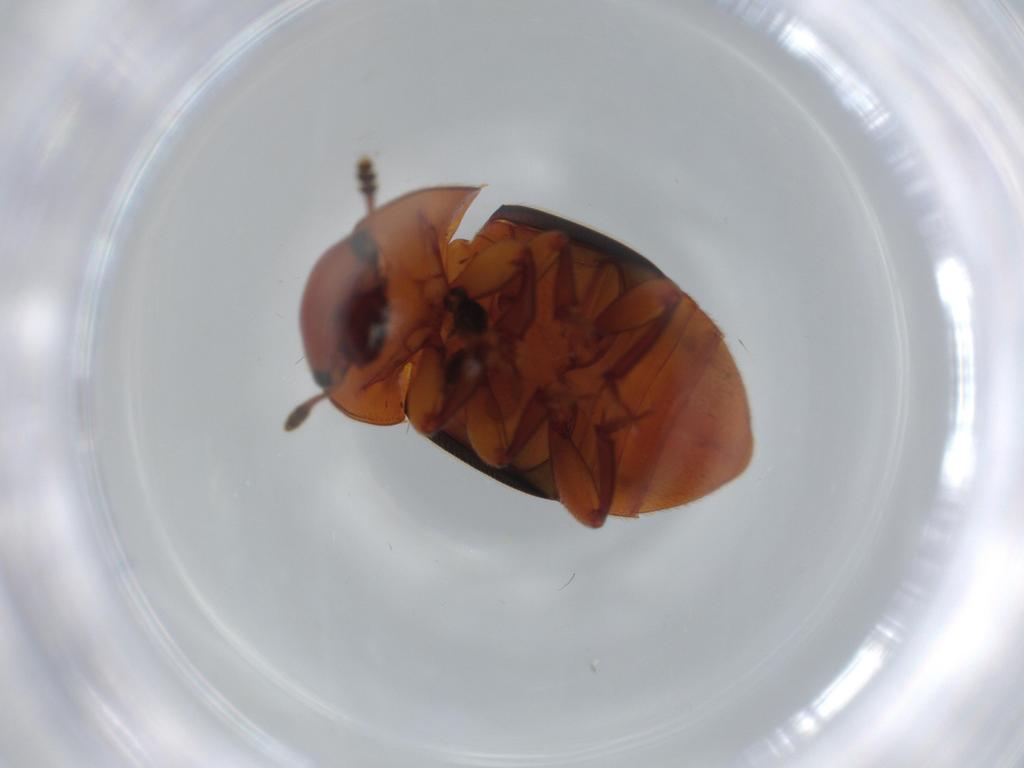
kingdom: Animalia
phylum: Arthropoda
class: Insecta
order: Coleoptera
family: Nitidulidae
